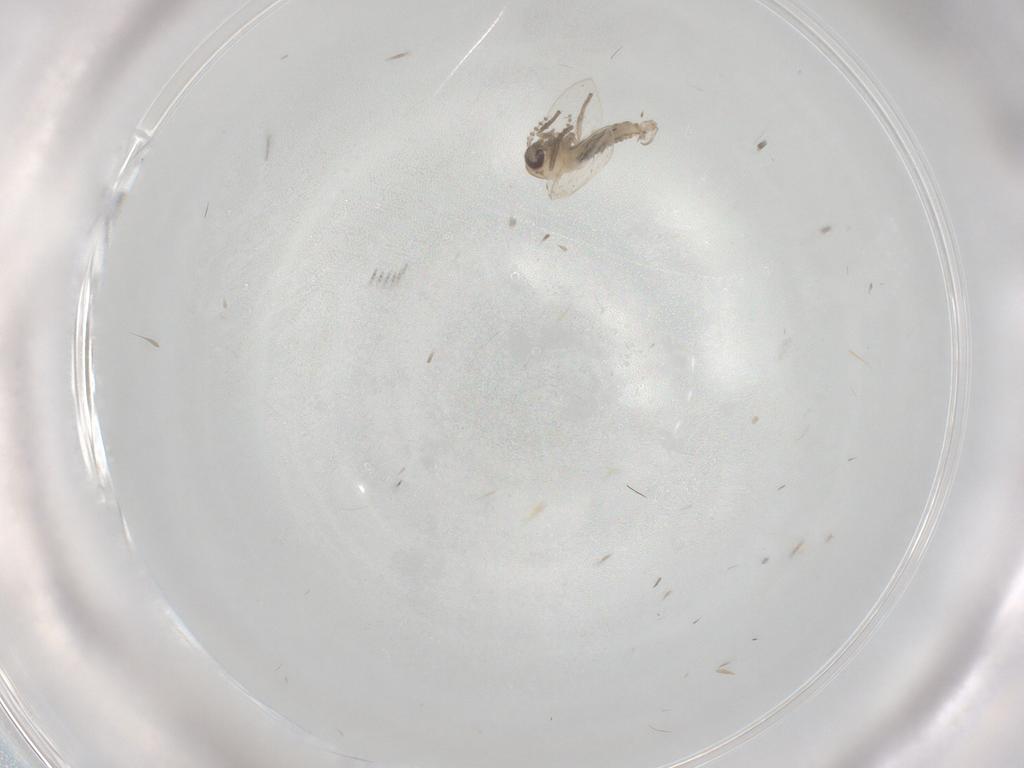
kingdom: Animalia
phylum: Arthropoda
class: Insecta
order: Diptera
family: Psychodidae
